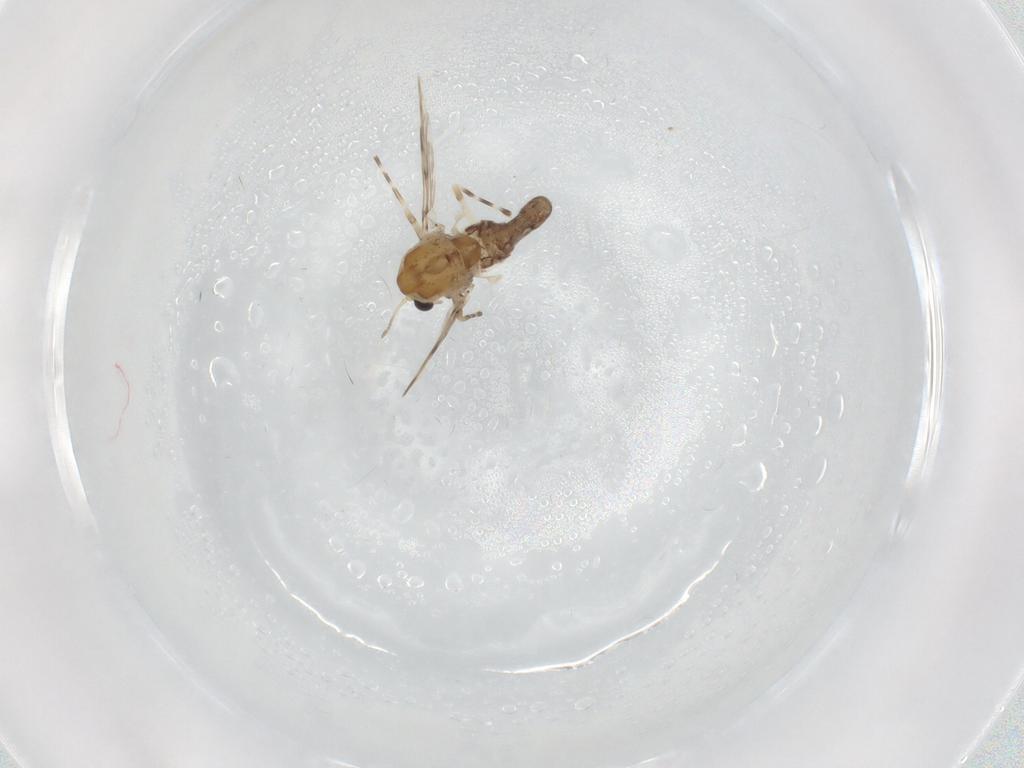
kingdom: Animalia
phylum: Arthropoda
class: Insecta
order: Diptera
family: Chironomidae
